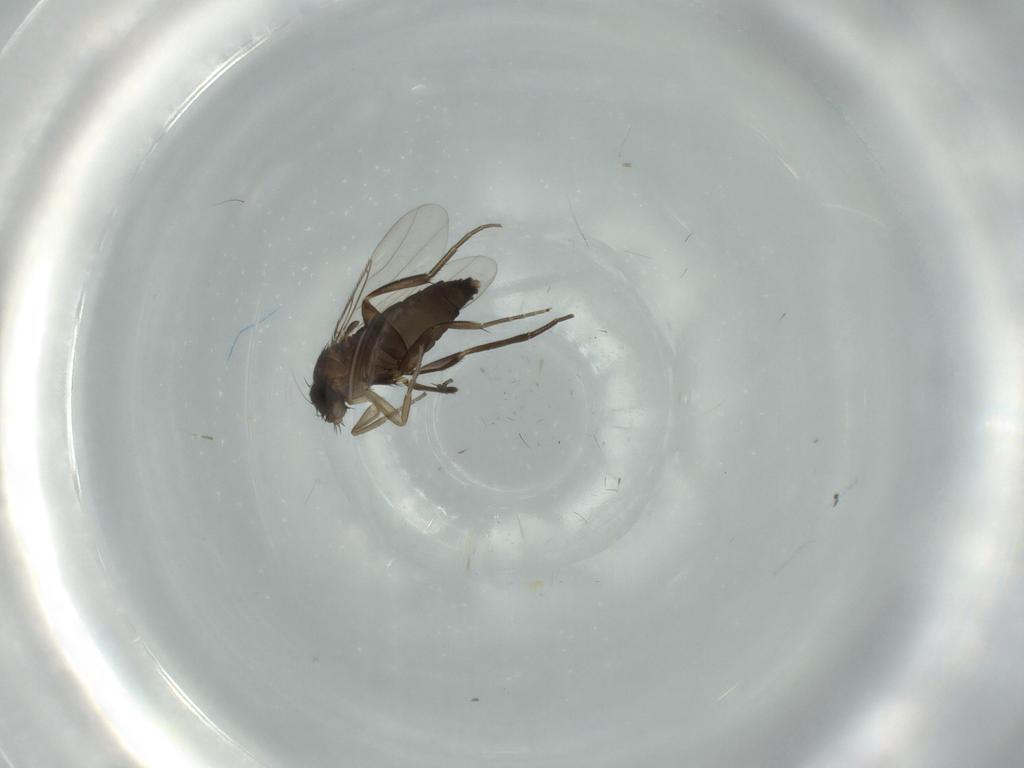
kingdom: Animalia
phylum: Arthropoda
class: Insecta
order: Diptera
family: Phoridae
